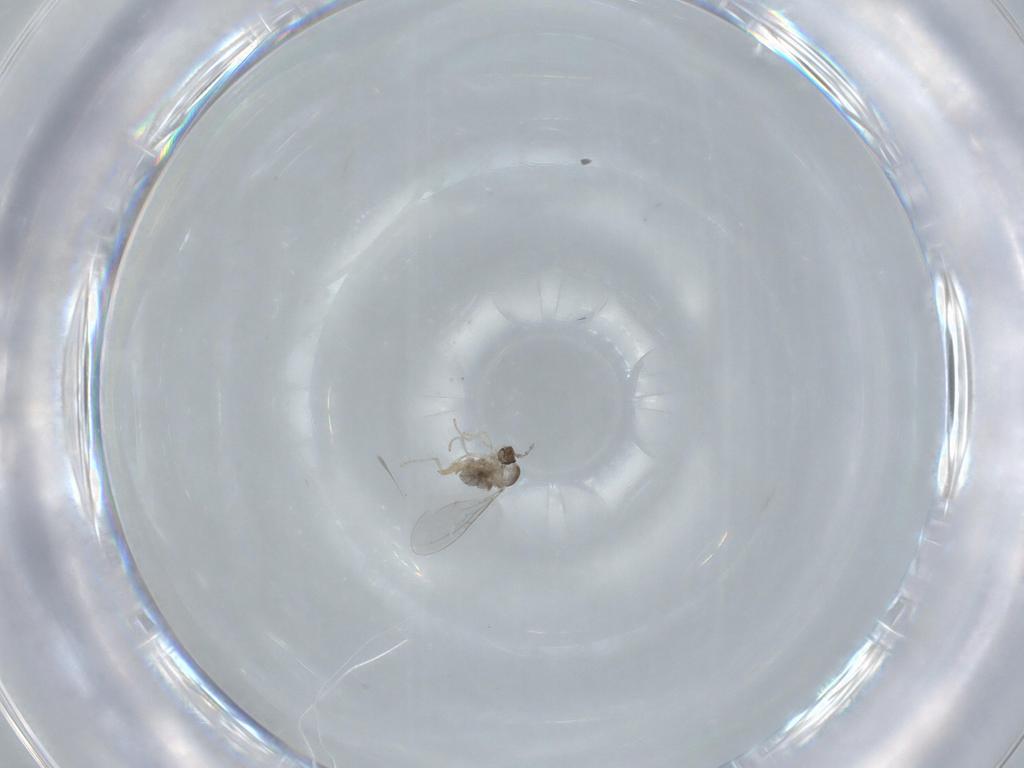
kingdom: Animalia
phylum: Arthropoda
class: Insecta
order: Diptera
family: Cecidomyiidae
